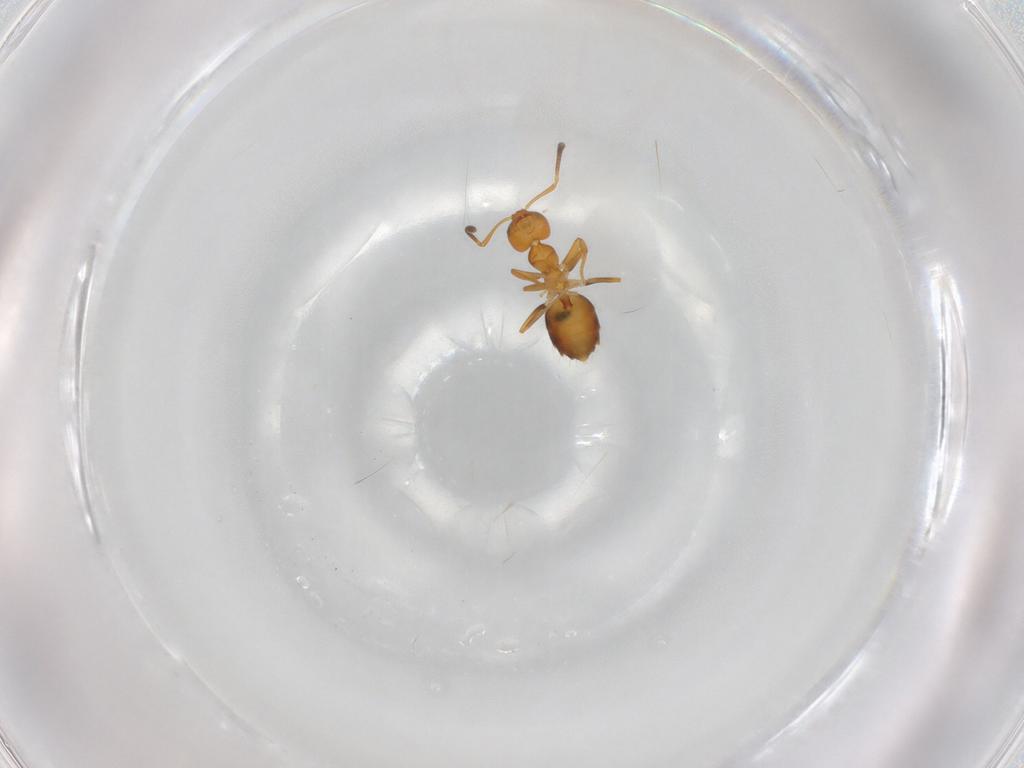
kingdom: Animalia
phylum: Arthropoda
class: Insecta
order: Hymenoptera
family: Formicidae
